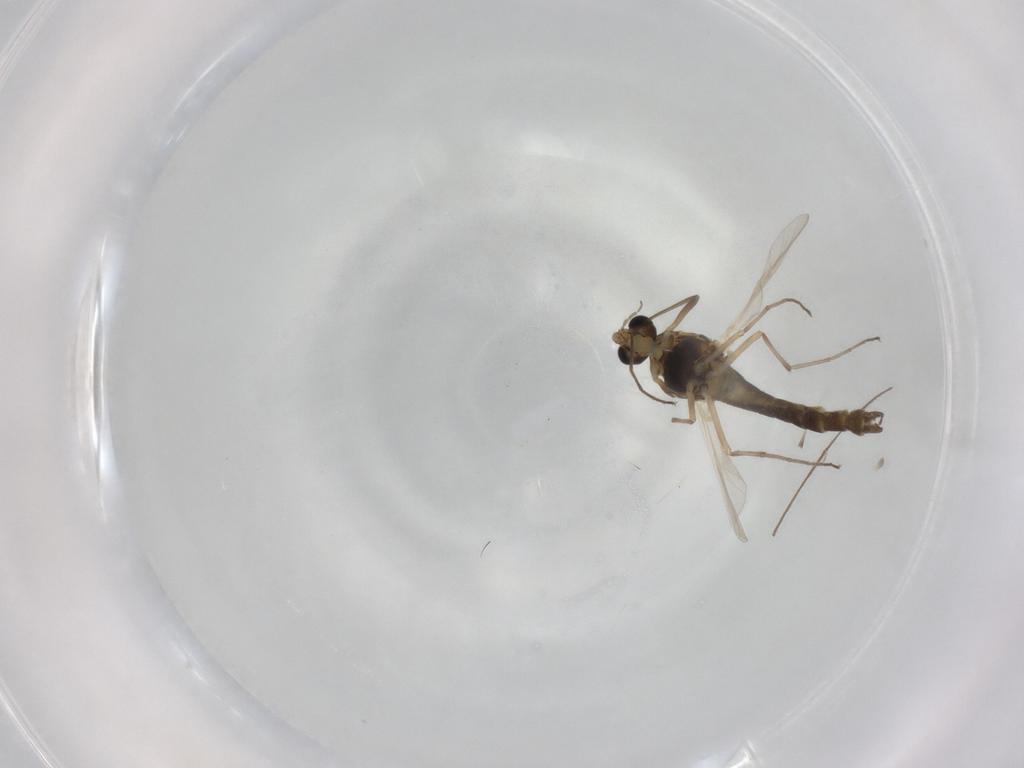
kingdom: Animalia
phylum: Arthropoda
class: Insecta
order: Diptera
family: Chironomidae
